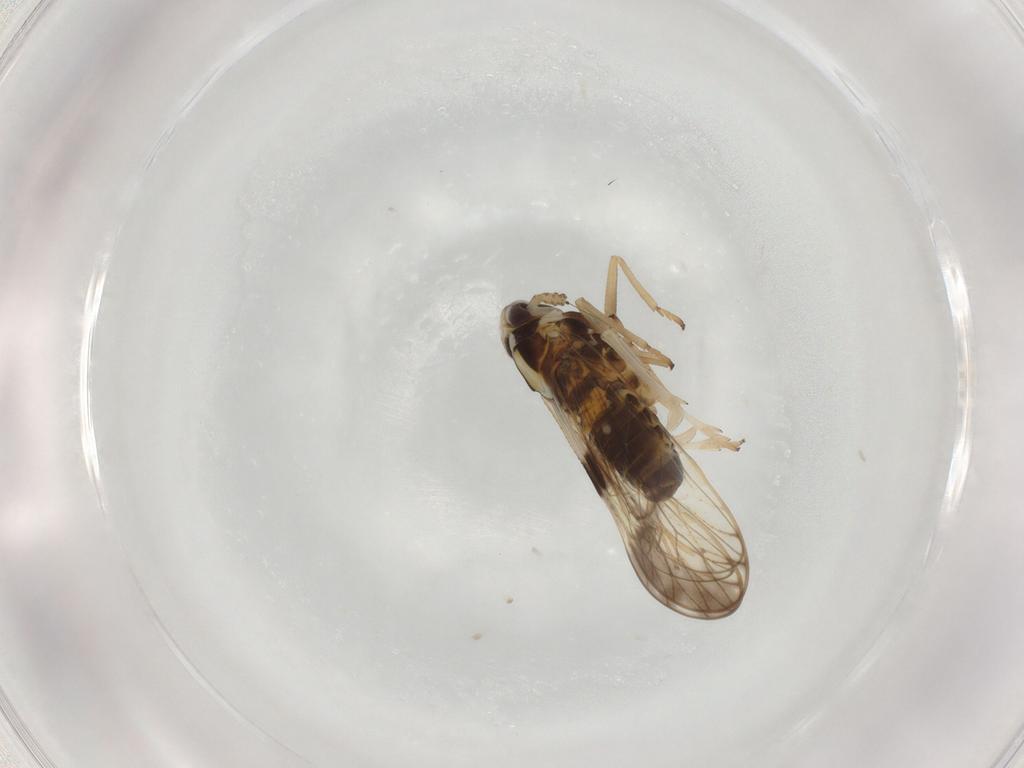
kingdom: Animalia
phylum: Arthropoda
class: Insecta
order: Hemiptera
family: Delphacidae
